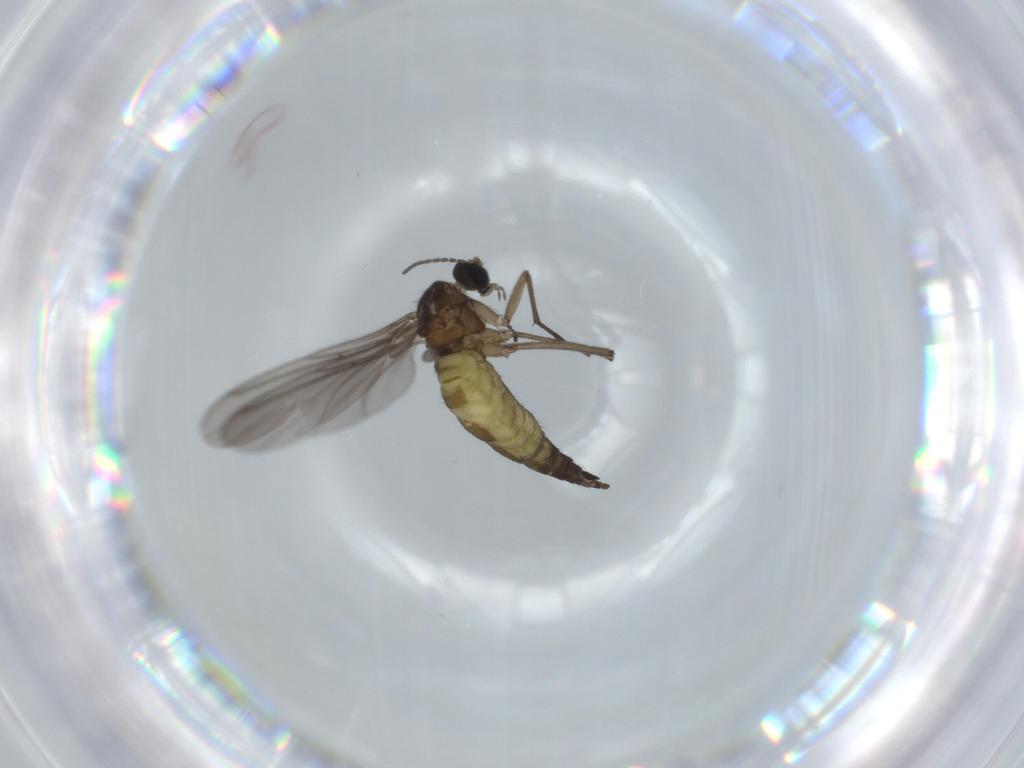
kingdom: Animalia
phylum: Arthropoda
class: Insecta
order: Diptera
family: Sciaridae
